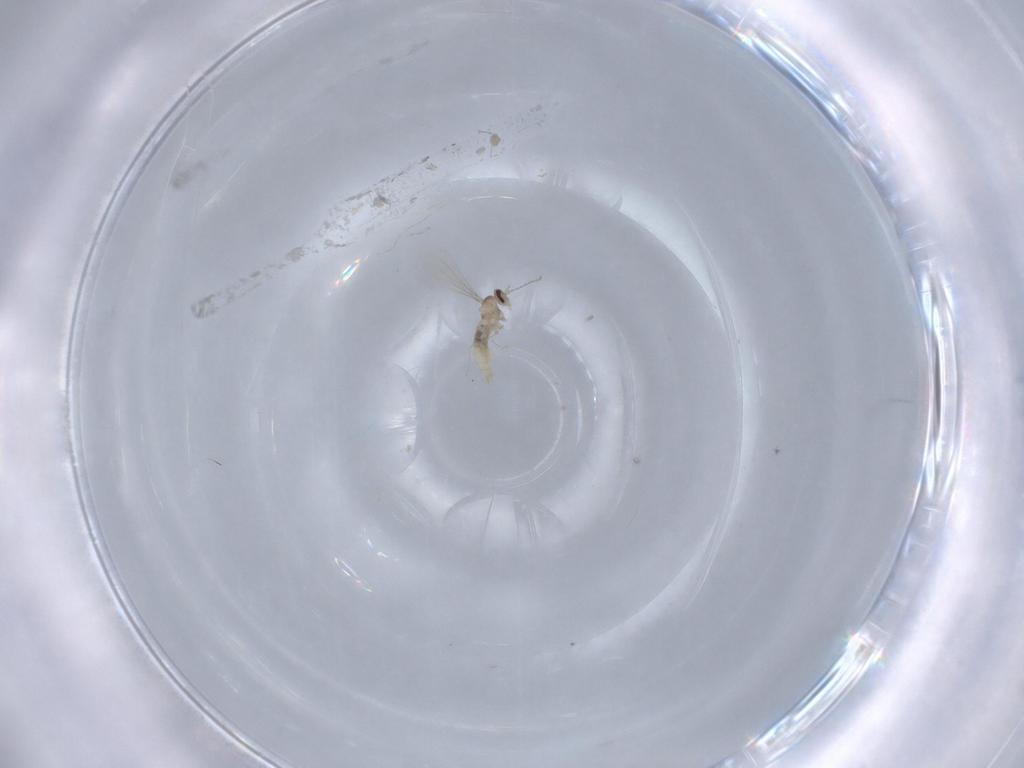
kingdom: Animalia
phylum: Arthropoda
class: Insecta
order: Diptera
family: Cecidomyiidae
